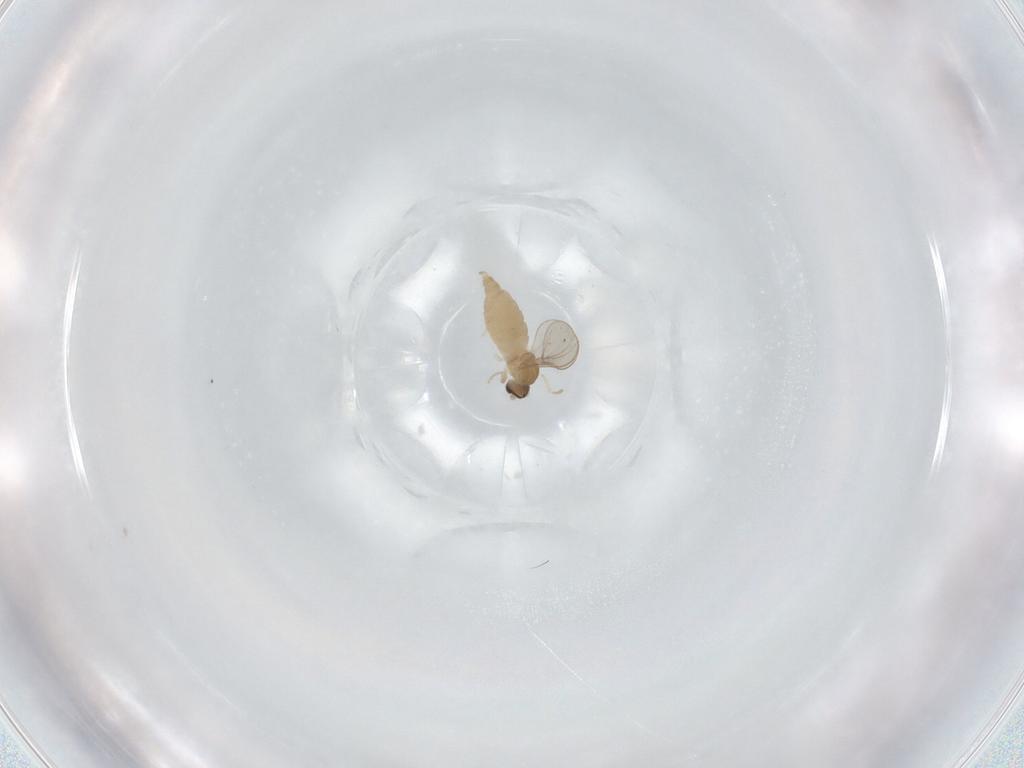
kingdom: Animalia
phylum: Arthropoda
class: Insecta
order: Diptera
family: Cecidomyiidae
